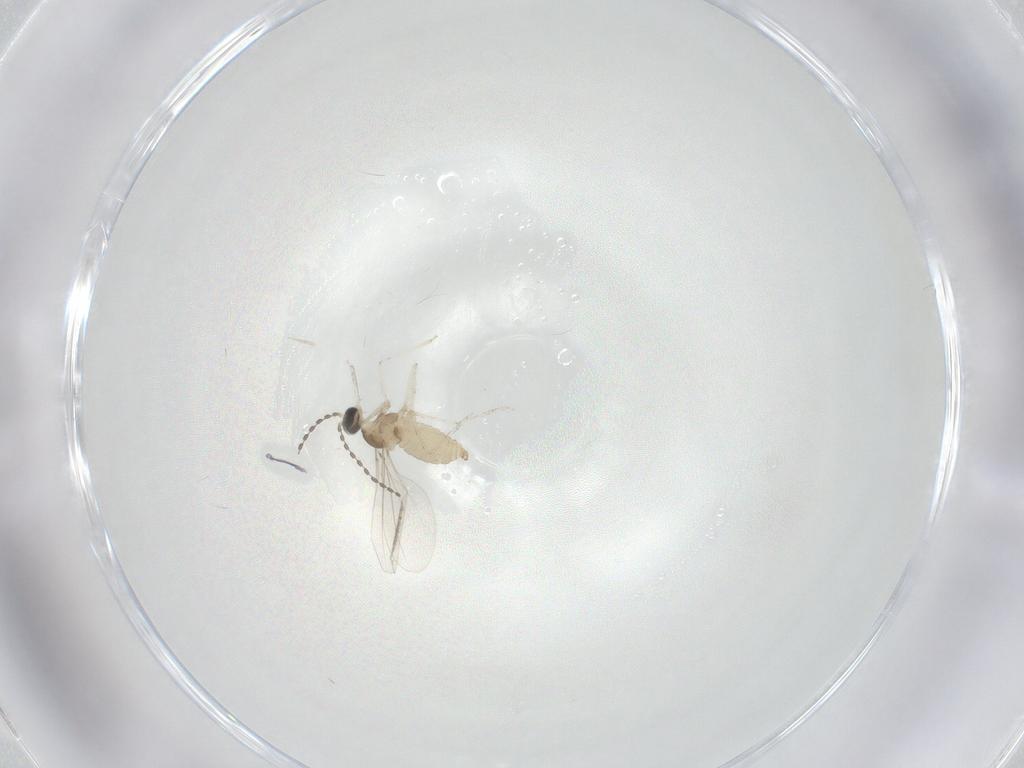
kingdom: Animalia
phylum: Arthropoda
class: Insecta
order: Diptera
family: Cecidomyiidae
